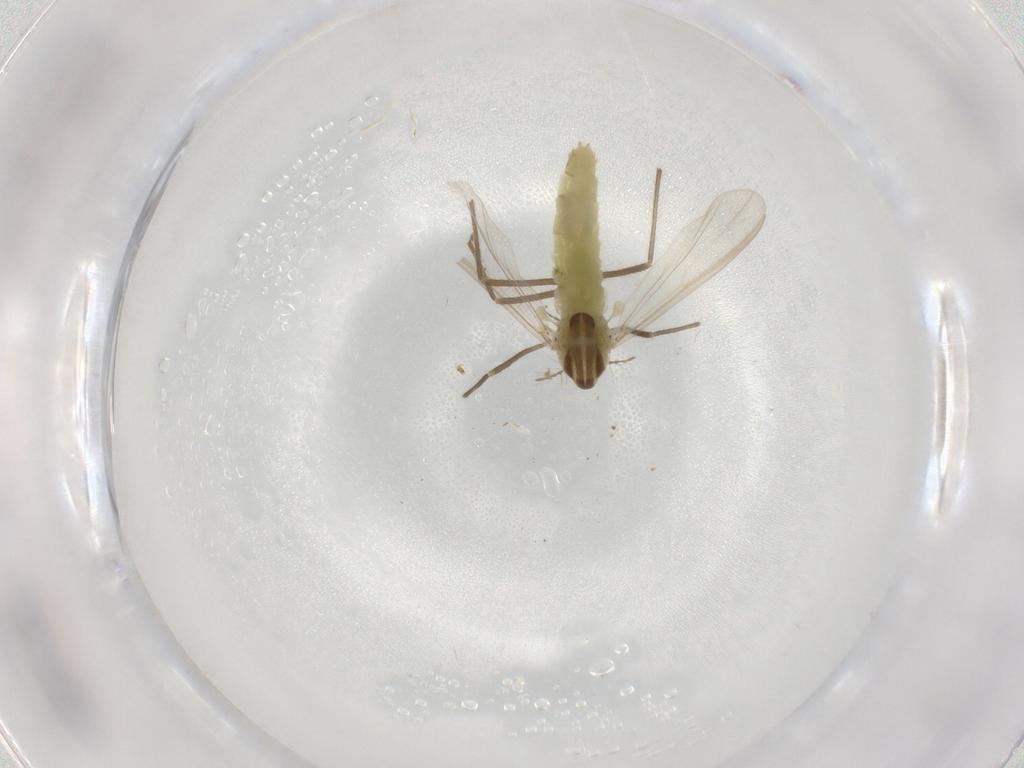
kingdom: Animalia
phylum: Arthropoda
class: Insecta
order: Diptera
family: Chironomidae
